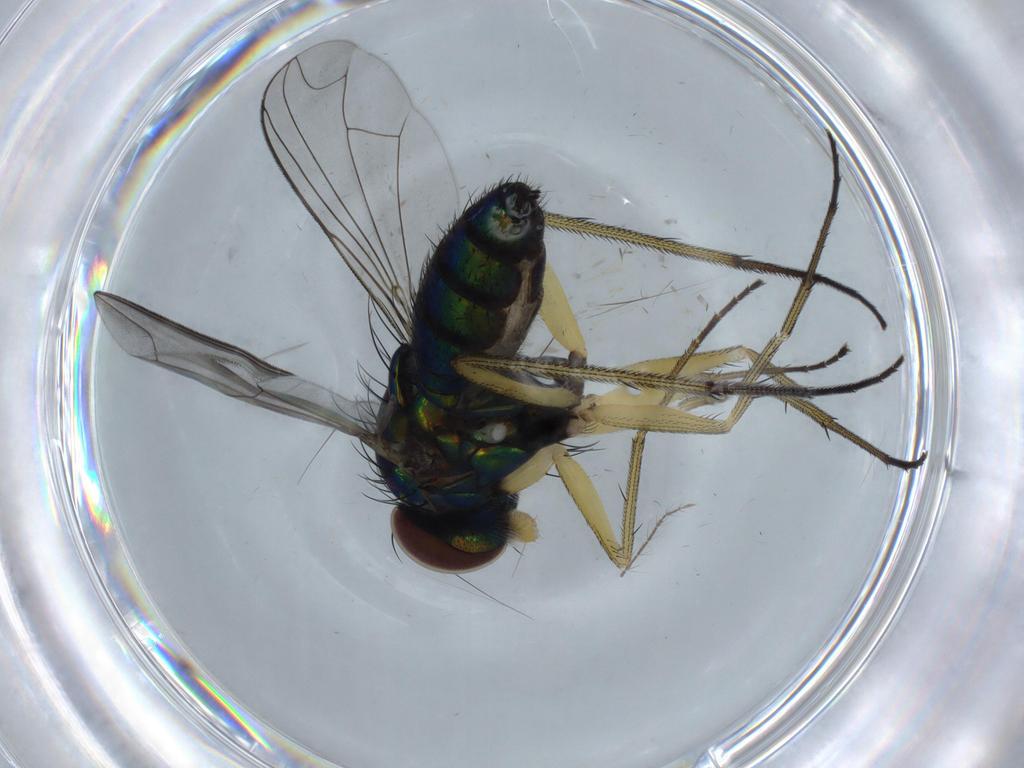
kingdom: Animalia
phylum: Arthropoda
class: Insecta
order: Diptera
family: Dolichopodidae
